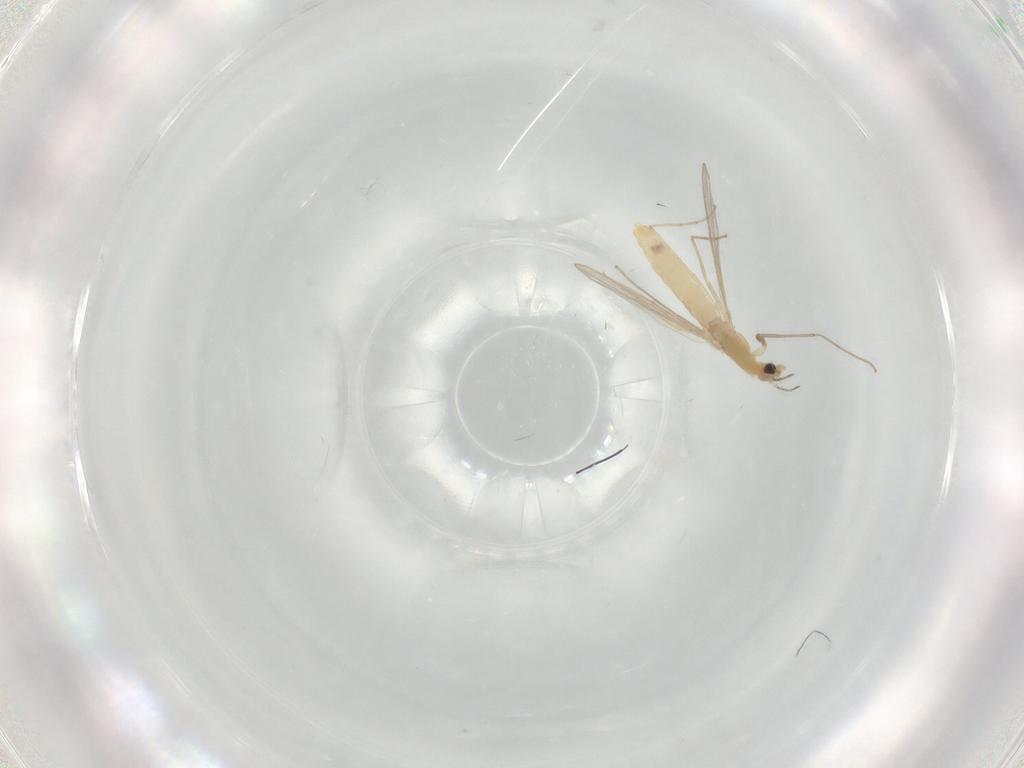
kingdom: Animalia
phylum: Arthropoda
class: Insecta
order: Diptera
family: Chironomidae
